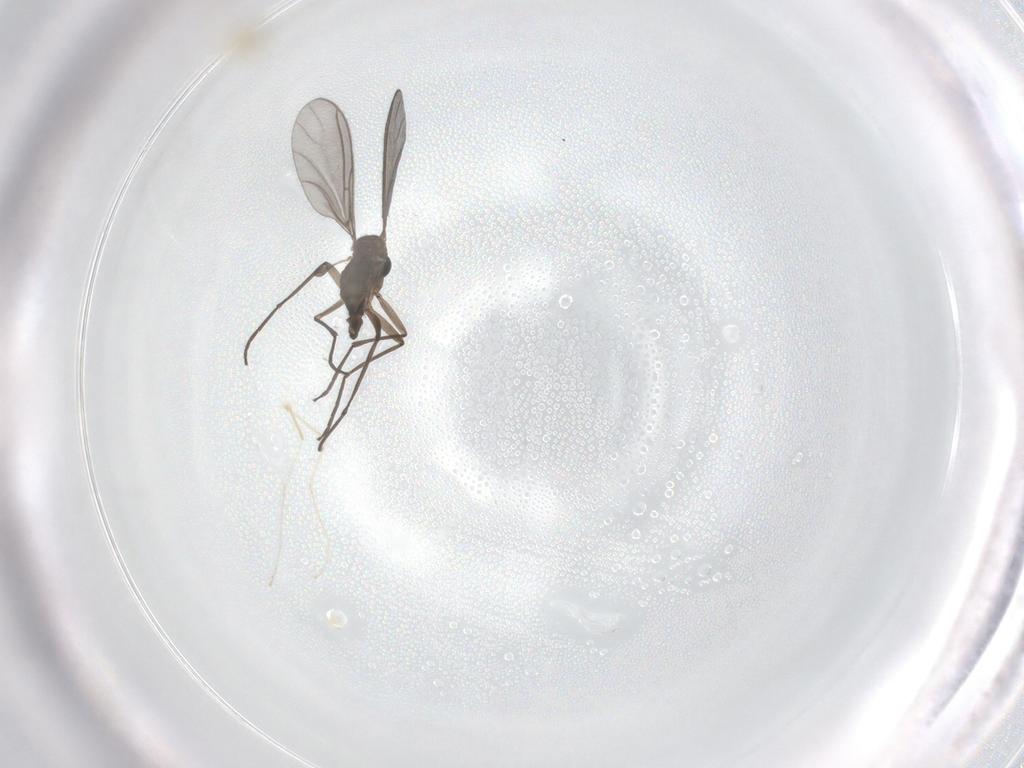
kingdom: Animalia
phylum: Arthropoda
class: Insecta
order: Diptera
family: Sciaridae
